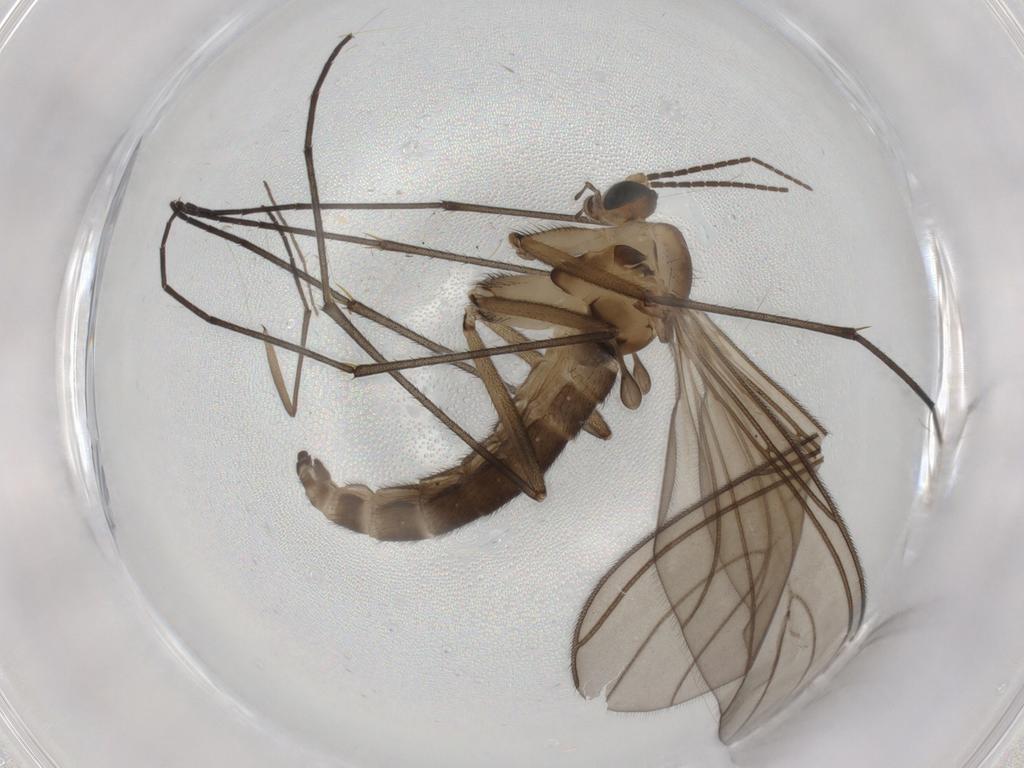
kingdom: Animalia
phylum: Arthropoda
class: Insecta
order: Diptera
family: Sciaridae
